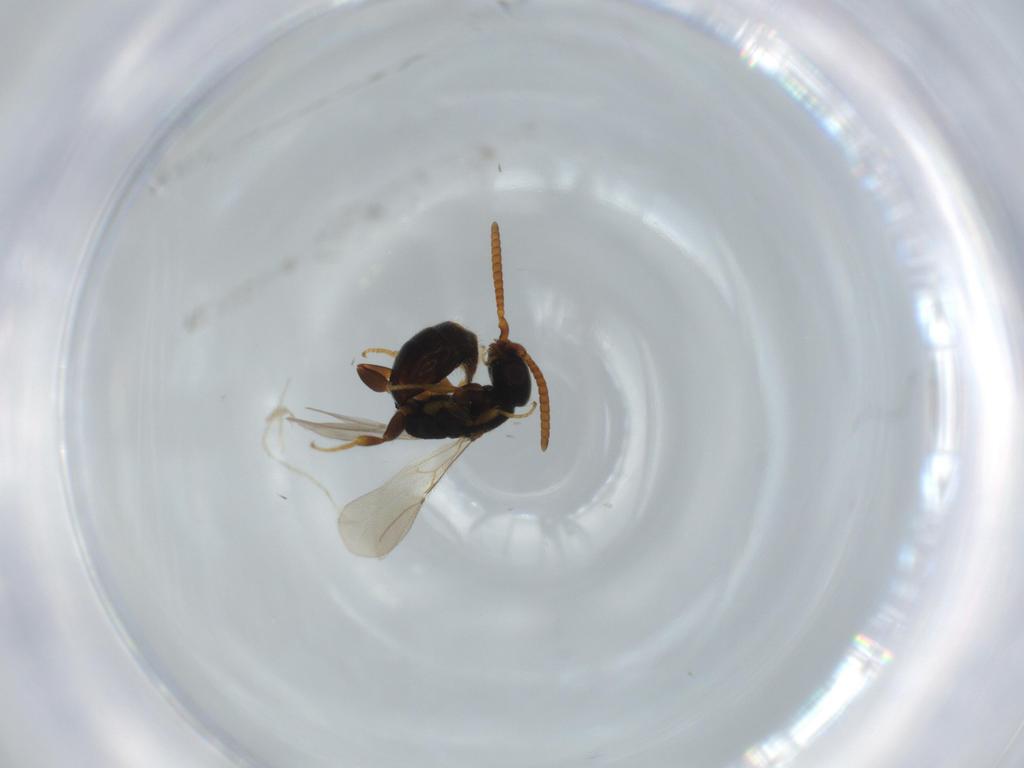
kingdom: Animalia
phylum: Arthropoda
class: Insecta
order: Hymenoptera
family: Bethylidae
